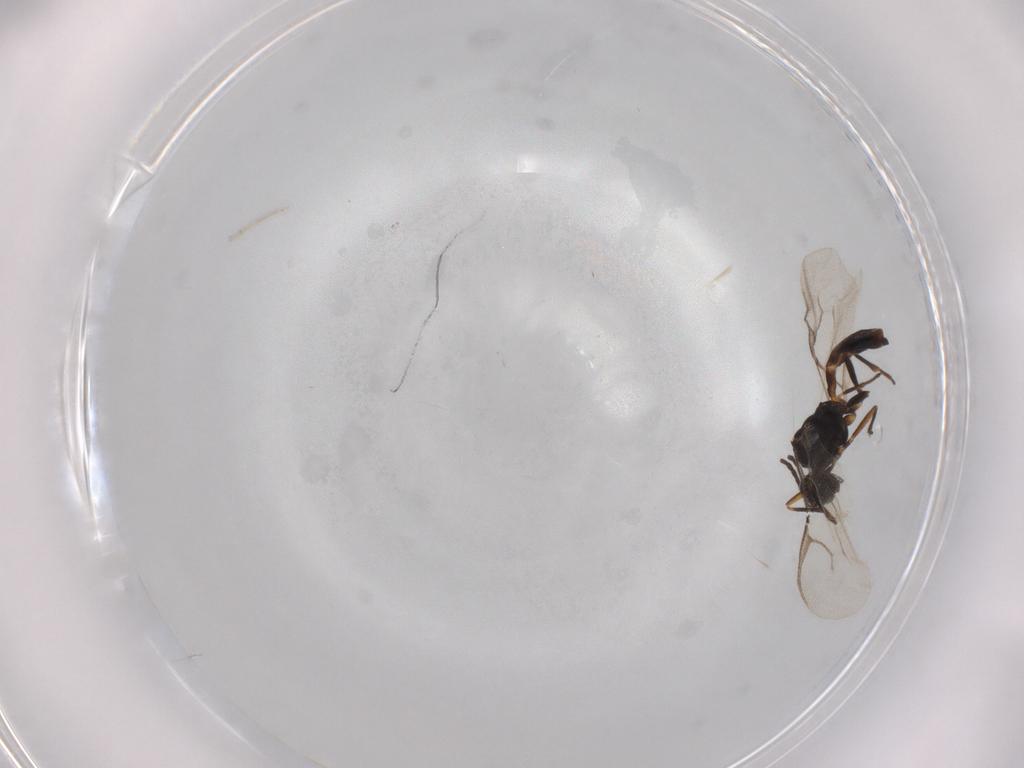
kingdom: Animalia
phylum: Arthropoda
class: Insecta
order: Hymenoptera
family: Braconidae
